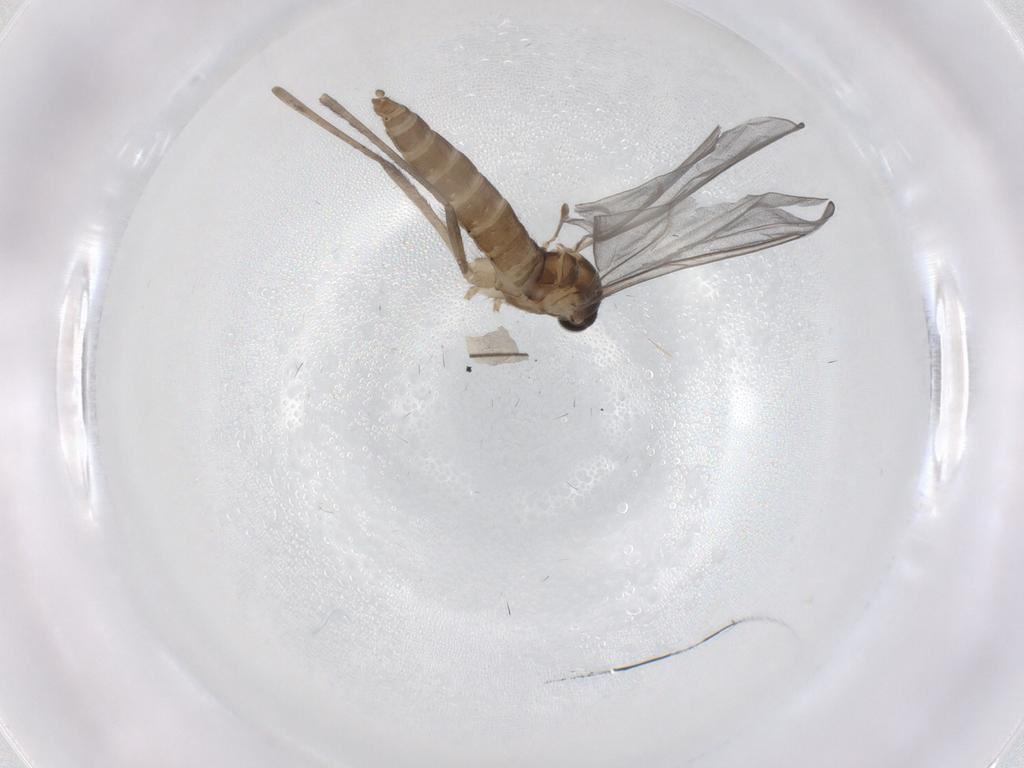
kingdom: Animalia
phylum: Arthropoda
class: Insecta
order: Diptera
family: Cecidomyiidae
